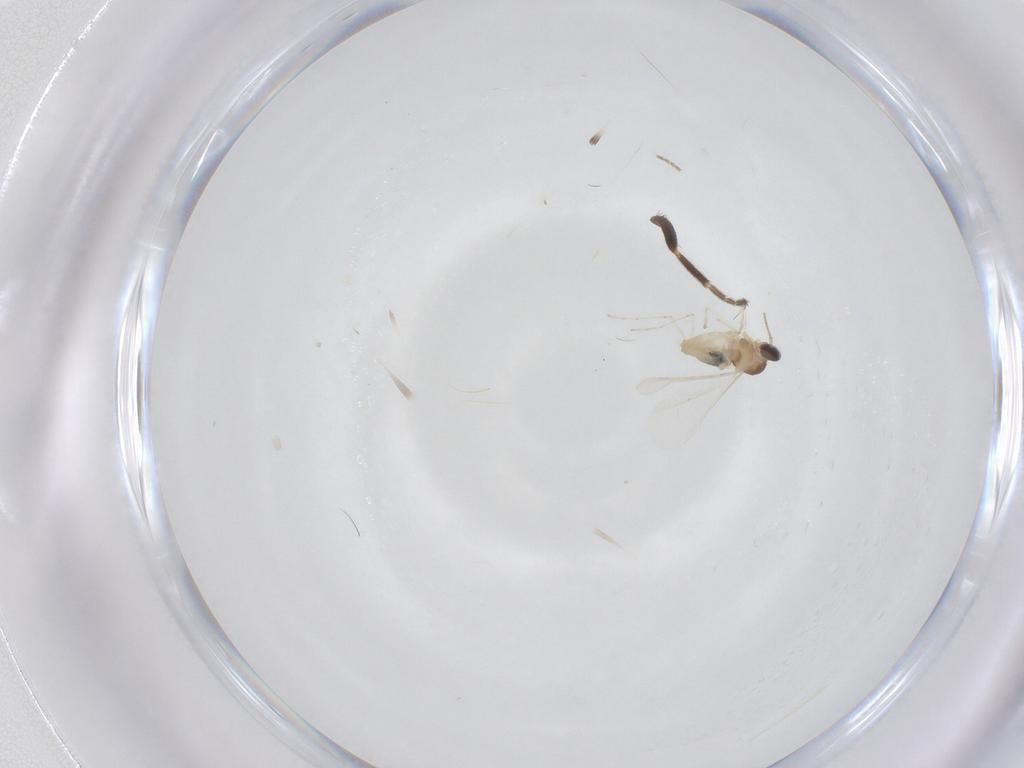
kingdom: Animalia
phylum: Arthropoda
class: Insecta
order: Diptera
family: Cecidomyiidae
